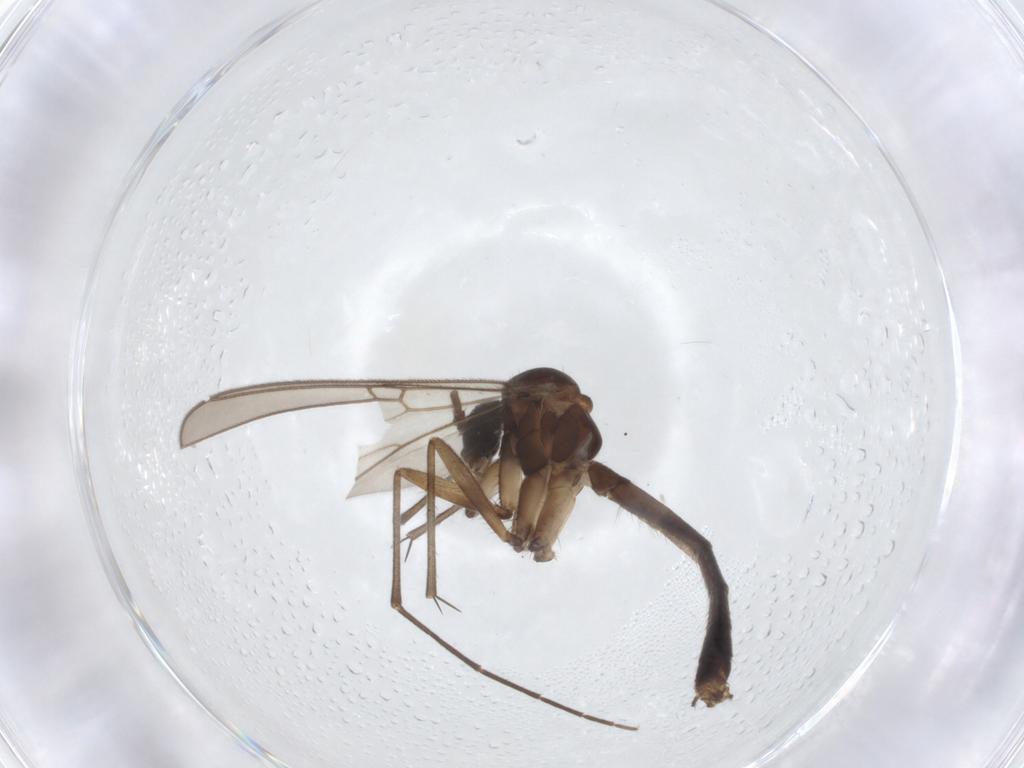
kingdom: Animalia
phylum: Arthropoda
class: Insecta
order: Diptera
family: Mycetophilidae
